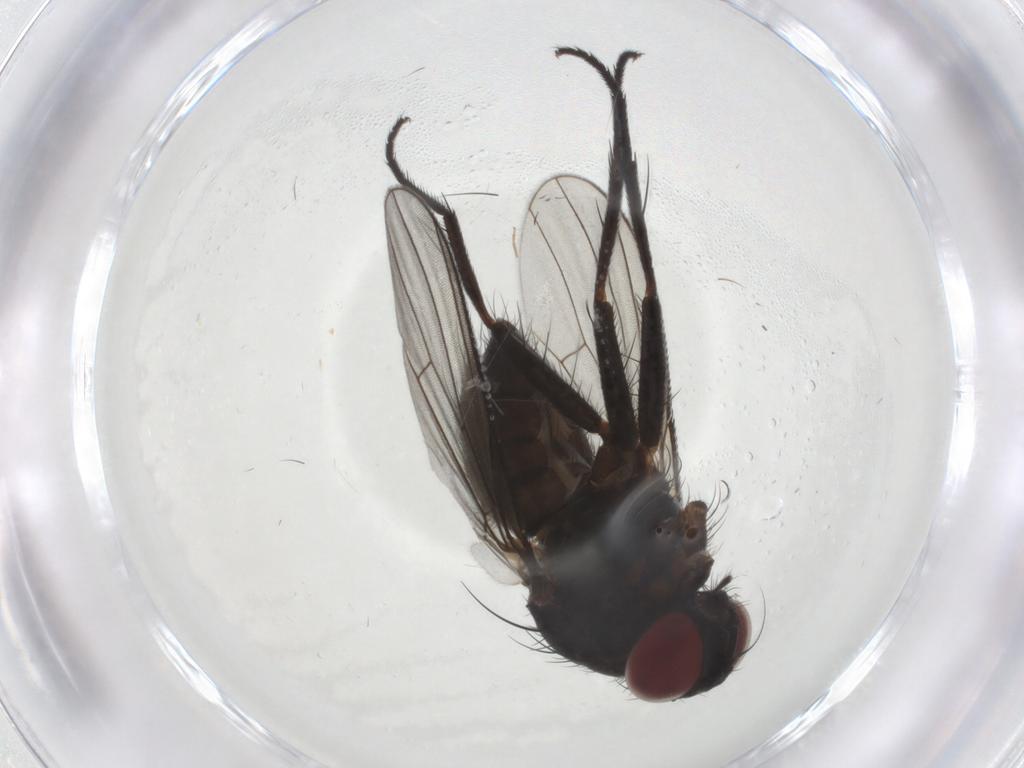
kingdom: Animalia
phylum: Arthropoda
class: Insecta
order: Diptera
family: Muscidae
